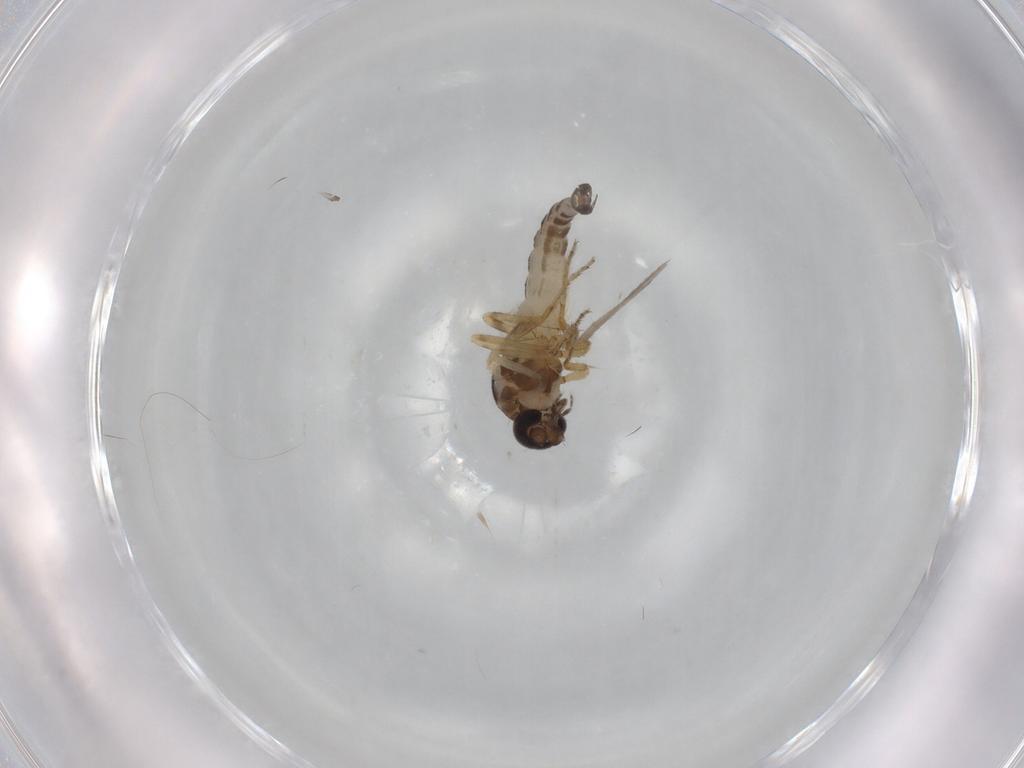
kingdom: Animalia
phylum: Arthropoda
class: Insecta
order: Diptera
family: Ceratopogonidae
